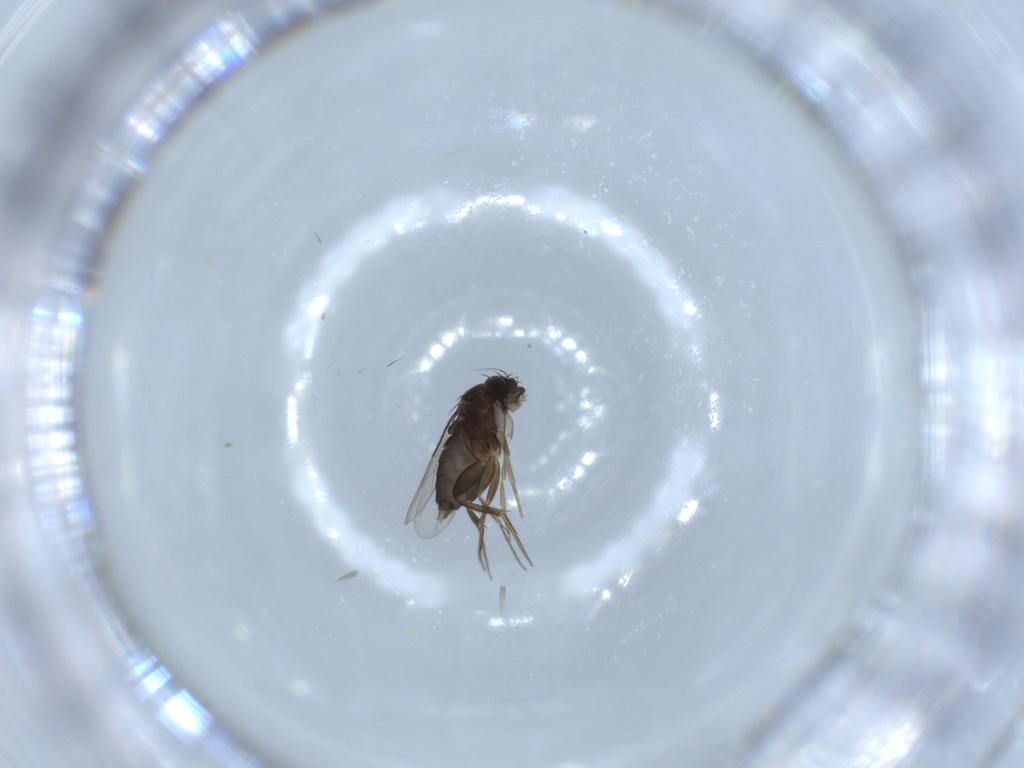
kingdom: Animalia
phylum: Arthropoda
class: Insecta
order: Diptera
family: Phoridae
